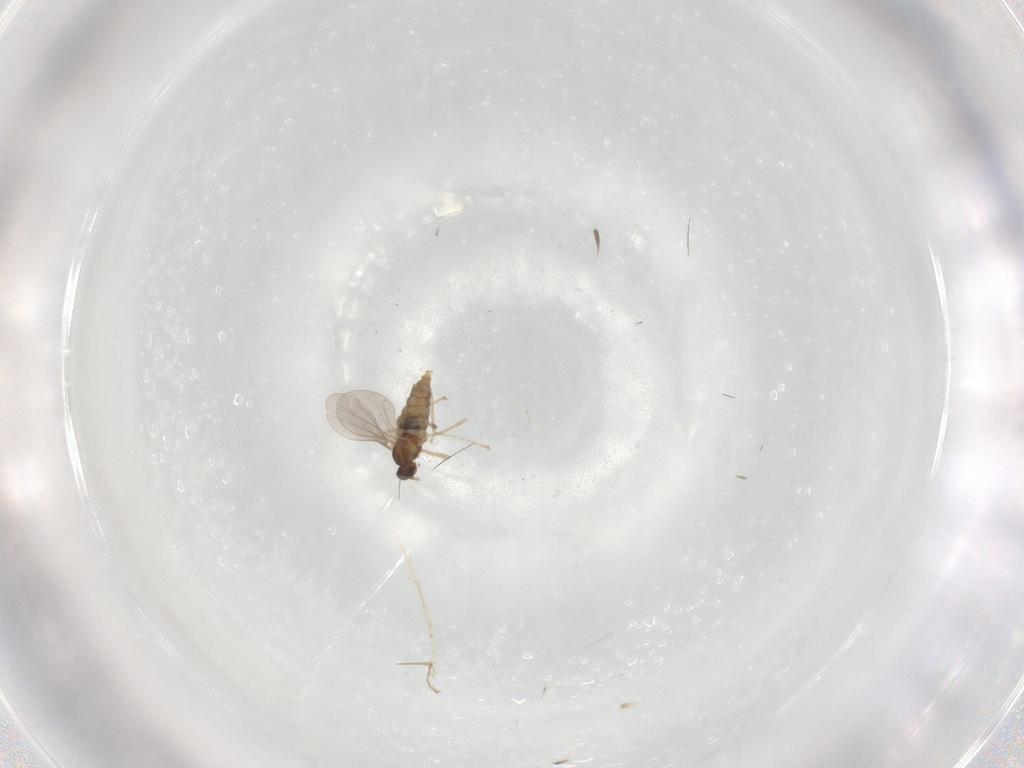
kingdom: Animalia
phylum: Arthropoda
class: Insecta
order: Diptera
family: Cecidomyiidae
